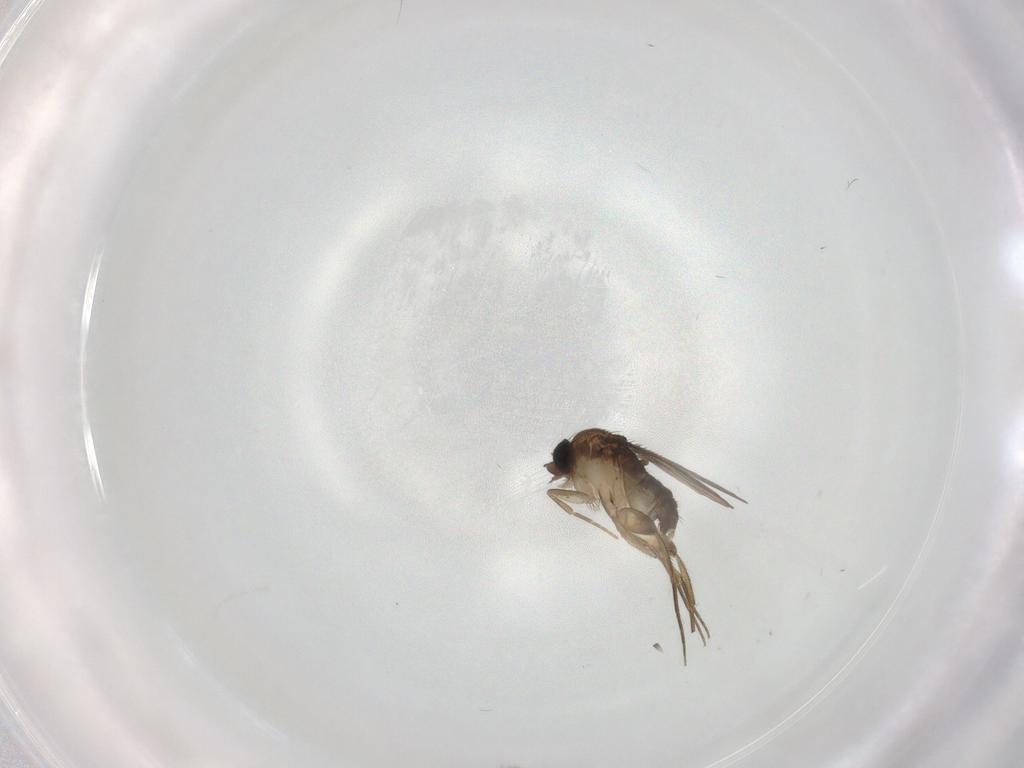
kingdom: Animalia
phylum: Arthropoda
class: Insecta
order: Diptera
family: Phoridae
